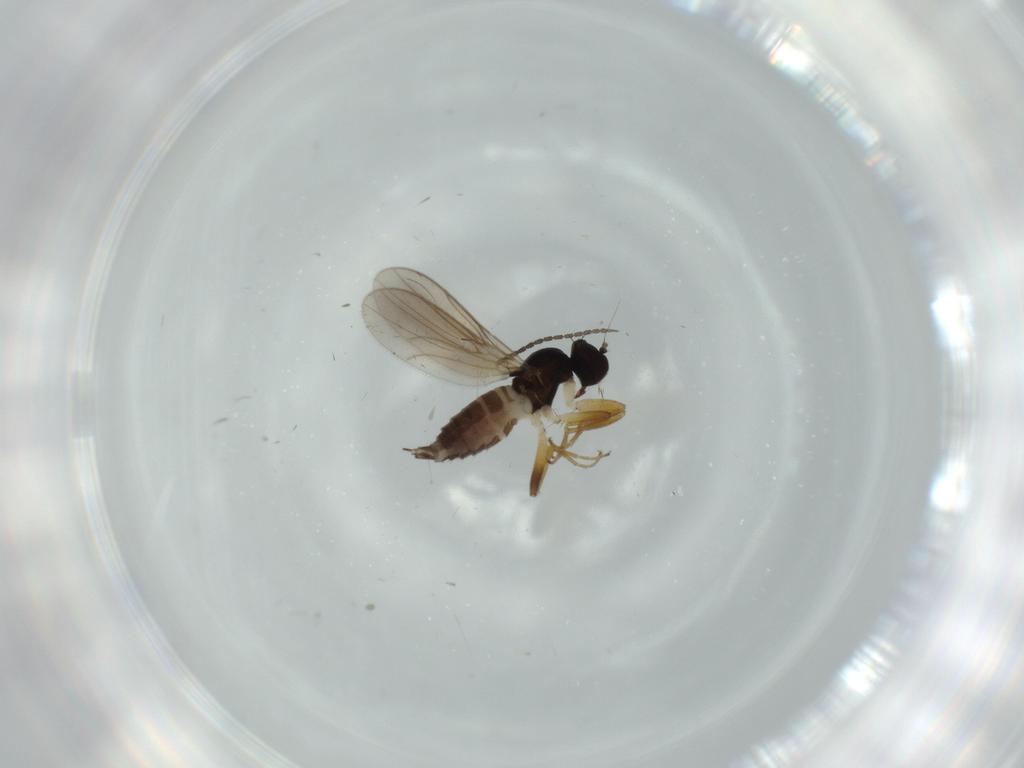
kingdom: Animalia
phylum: Arthropoda
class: Insecta
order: Diptera
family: Hybotidae
